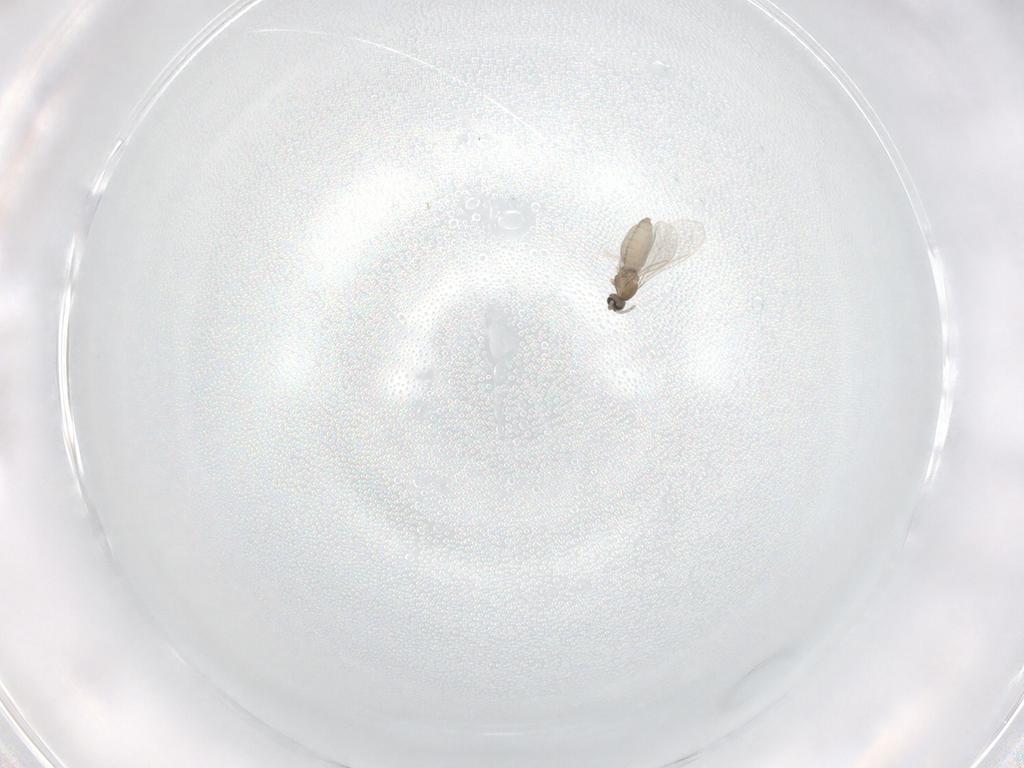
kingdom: Animalia
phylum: Arthropoda
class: Insecta
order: Diptera
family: Cecidomyiidae
